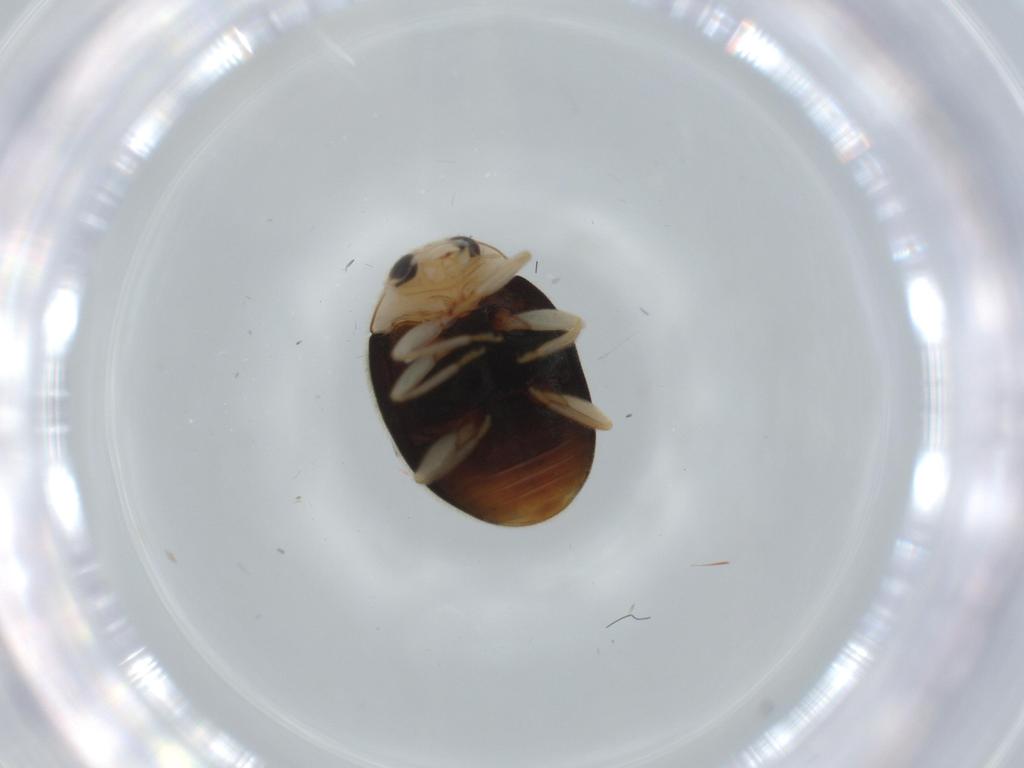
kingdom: Animalia
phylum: Arthropoda
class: Insecta
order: Coleoptera
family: Coccinellidae
